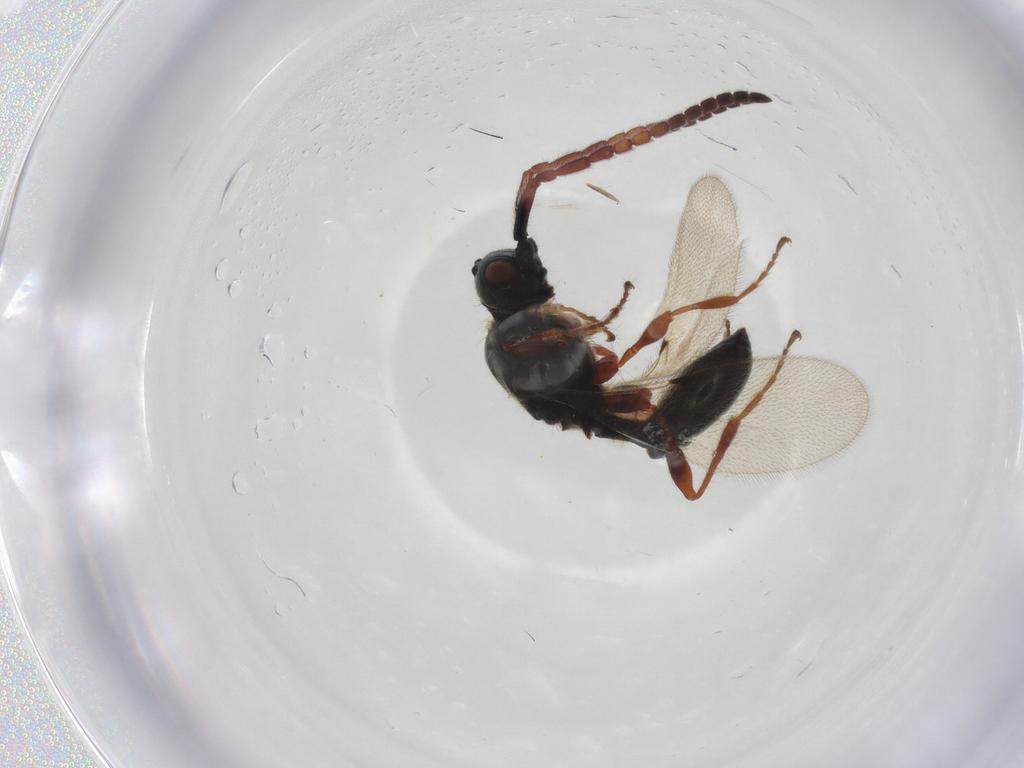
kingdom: Animalia
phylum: Arthropoda
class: Insecta
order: Hymenoptera
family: Diapriidae
